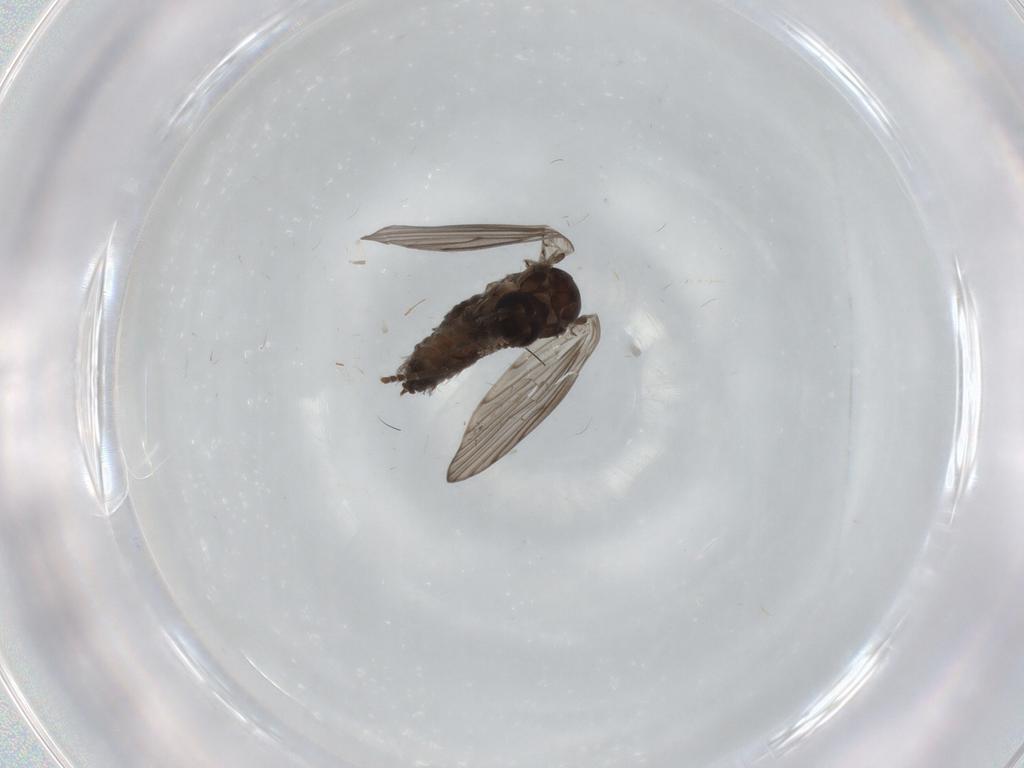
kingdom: Animalia
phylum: Arthropoda
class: Insecta
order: Diptera
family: Psychodidae
